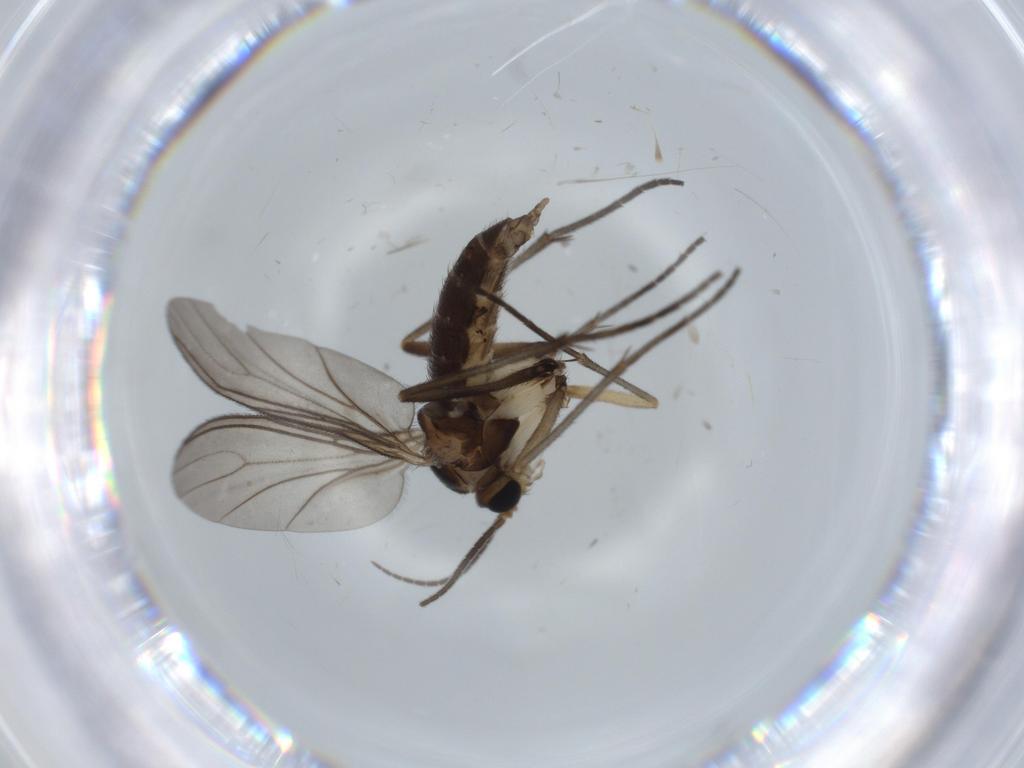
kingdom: Animalia
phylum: Arthropoda
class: Insecta
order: Diptera
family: Sciaridae
